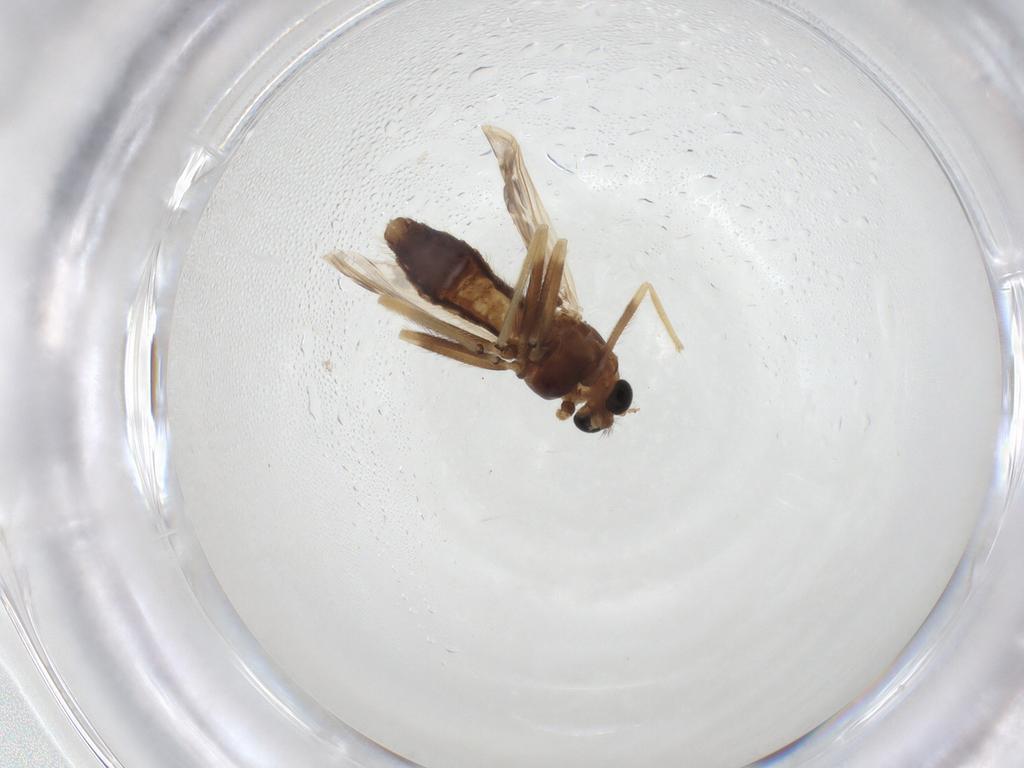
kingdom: Animalia
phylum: Arthropoda
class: Insecta
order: Diptera
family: Chironomidae
